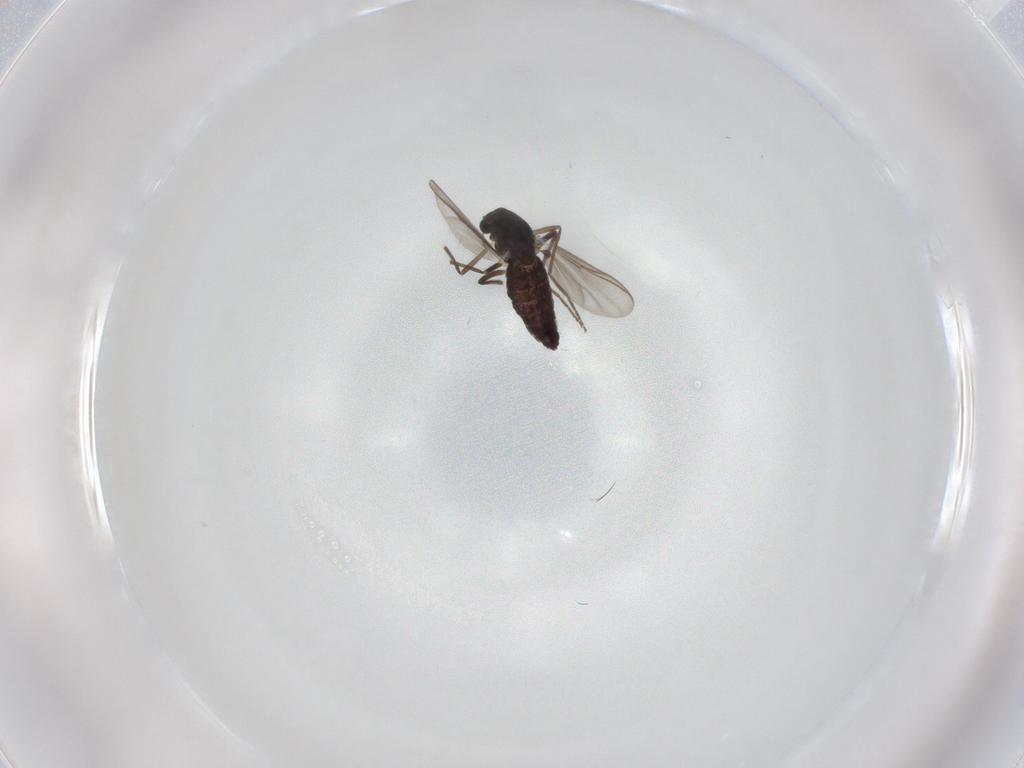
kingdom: Animalia
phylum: Arthropoda
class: Insecta
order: Diptera
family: Chironomidae
